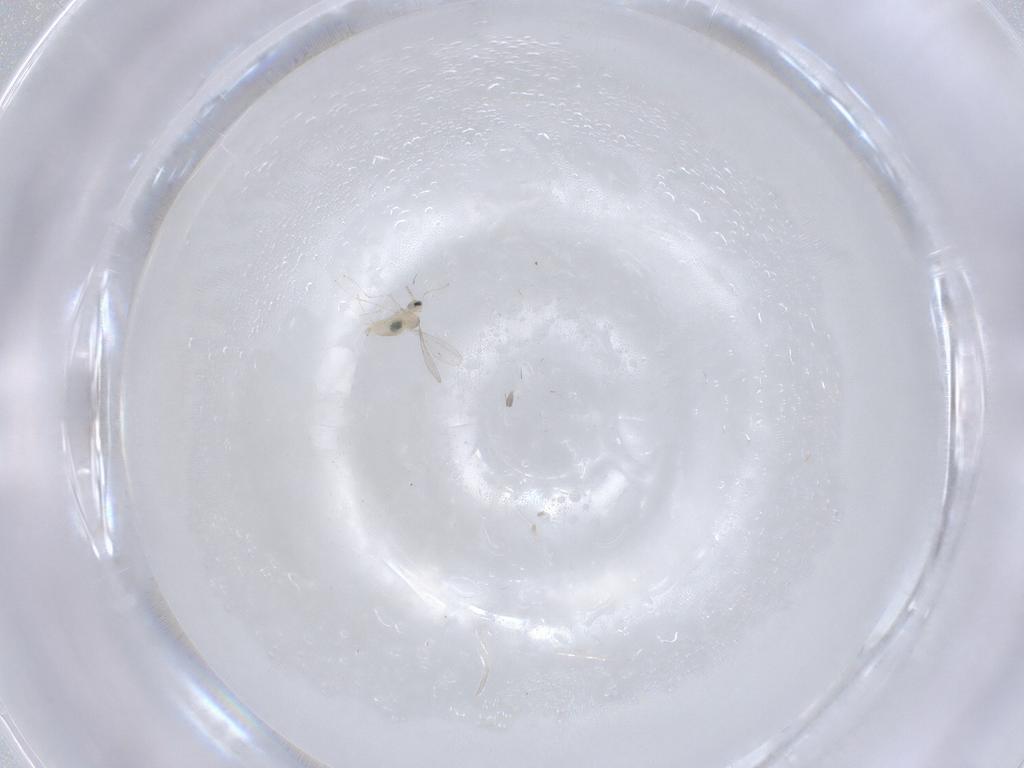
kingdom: Animalia
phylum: Arthropoda
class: Insecta
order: Diptera
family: Cecidomyiidae
